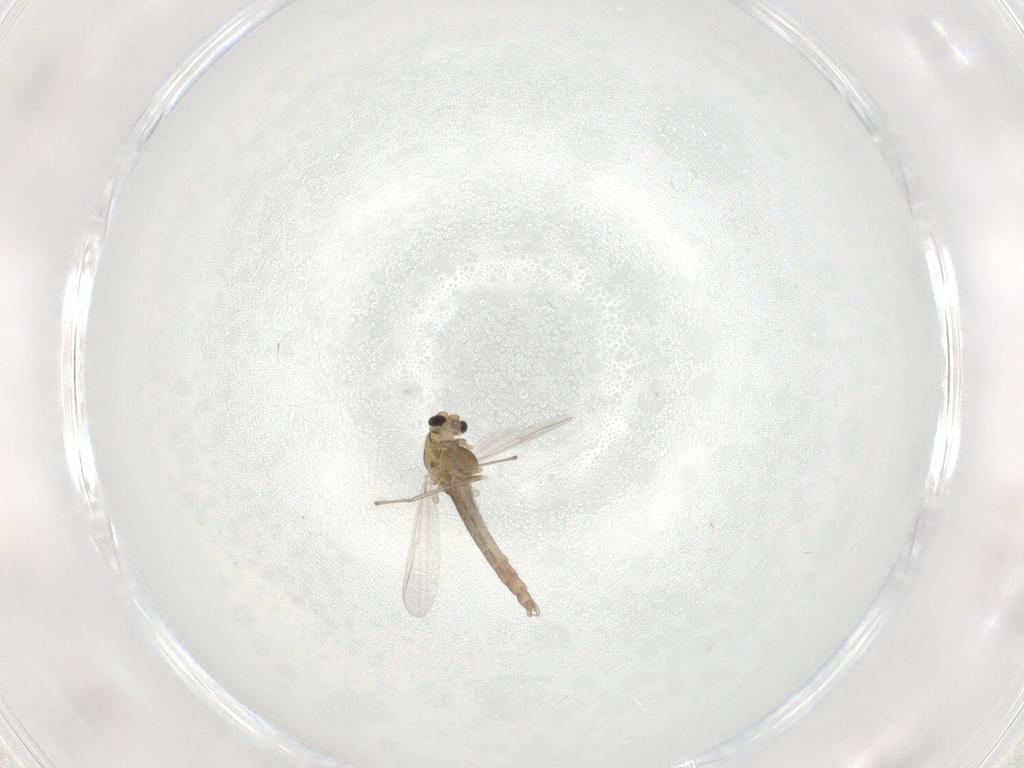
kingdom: Animalia
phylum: Arthropoda
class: Insecta
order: Diptera
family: Chironomidae
